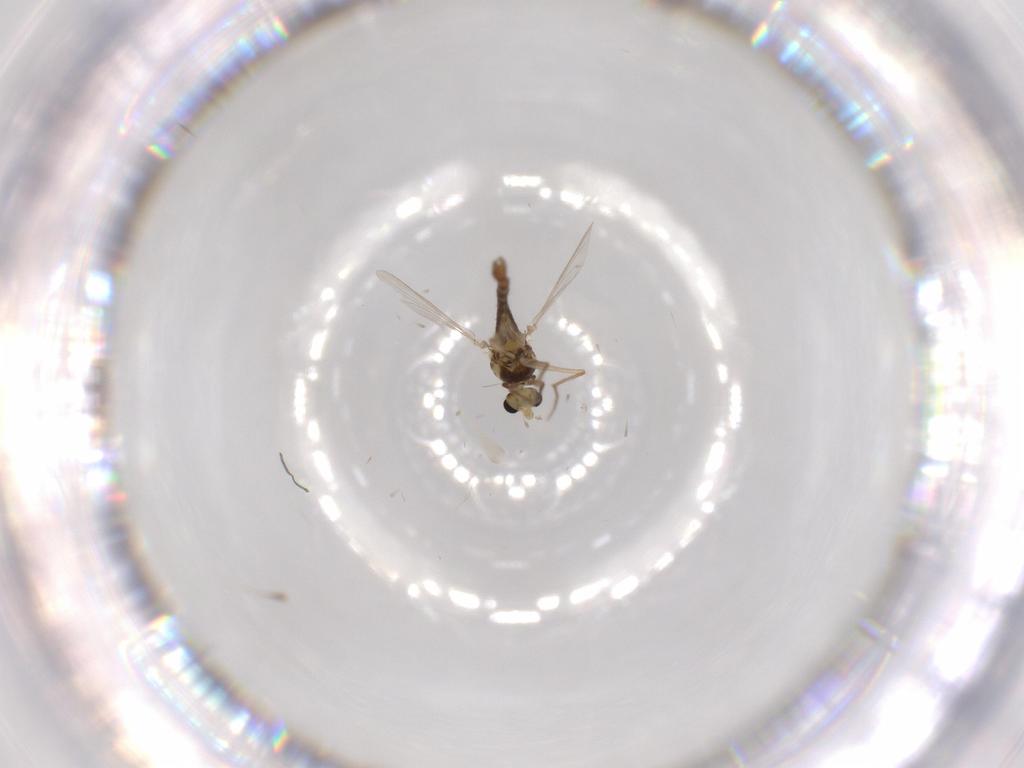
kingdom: Animalia
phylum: Arthropoda
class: Insecta
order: Diptera
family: Chironomidae
